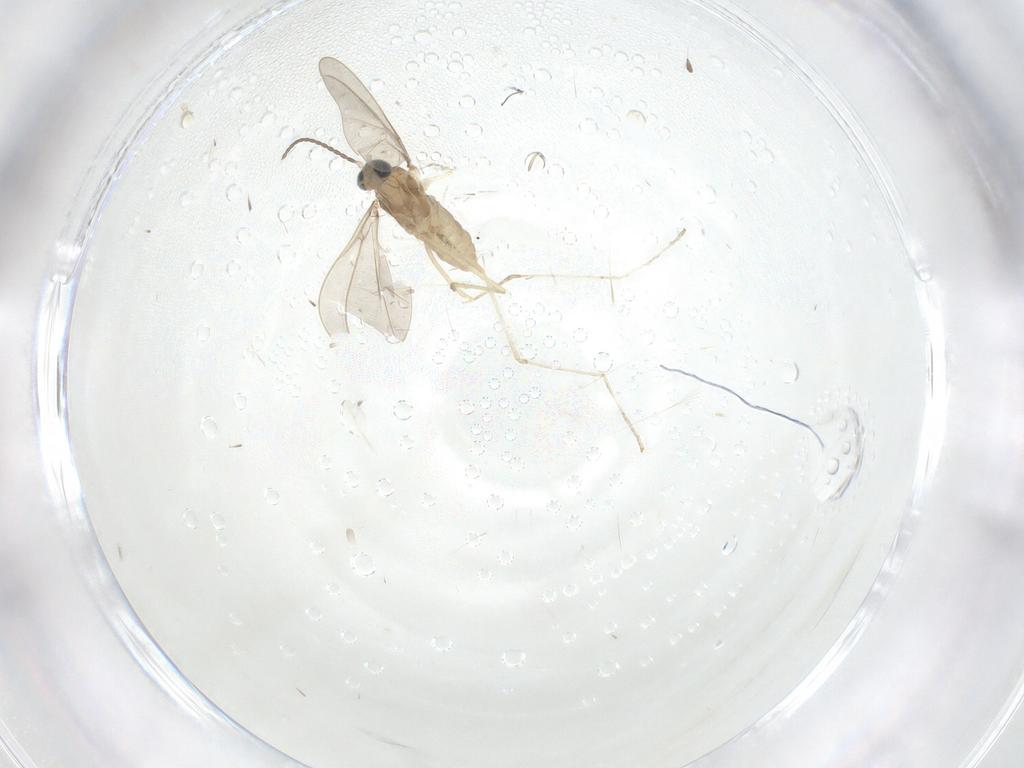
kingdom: Animalia
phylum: Arthropoda
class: Insecta
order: Diptera
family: Cecidomyiidae
